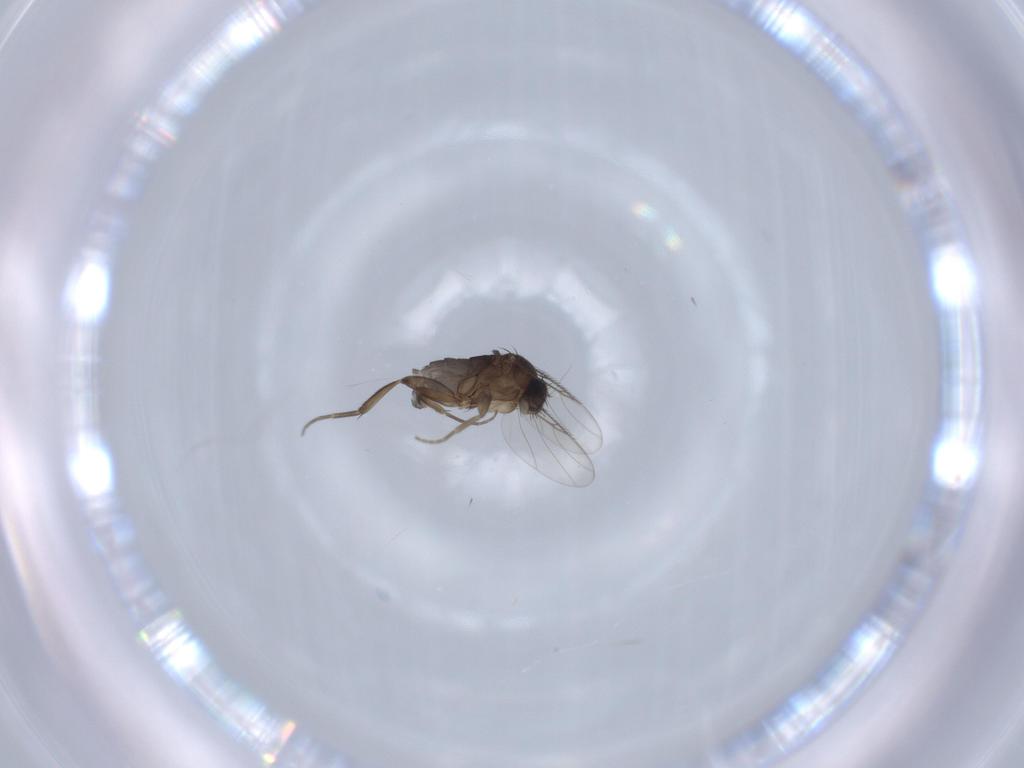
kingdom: Animalia
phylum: Arthropoda
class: Insecta
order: Diptera
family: Phoridae
